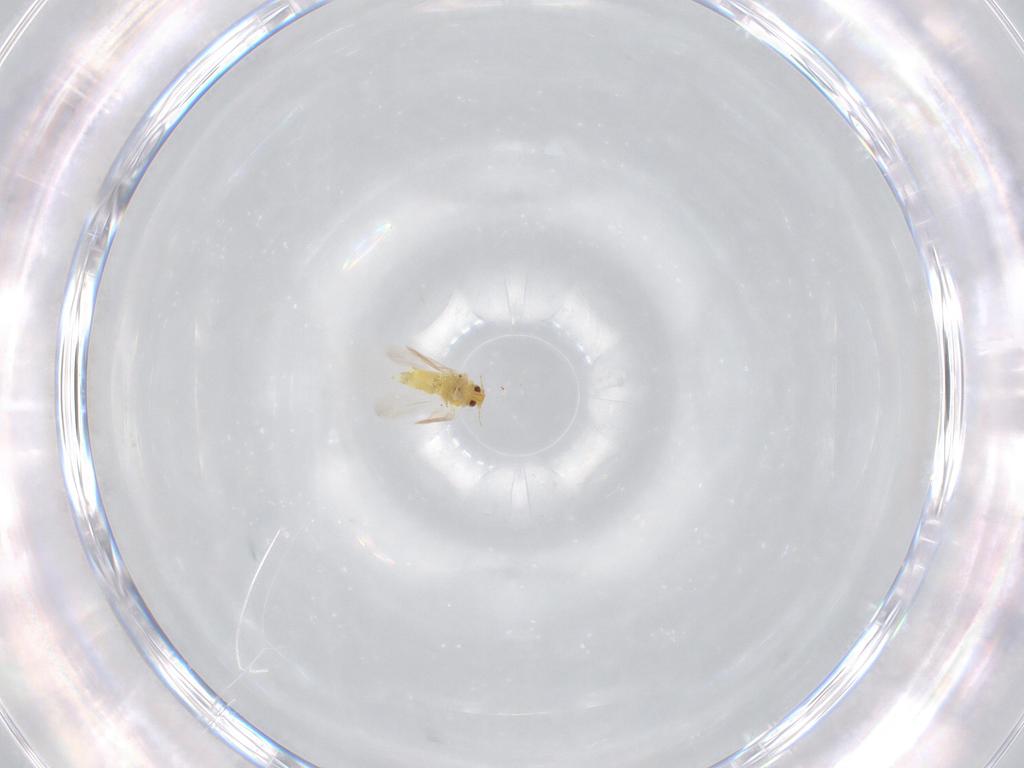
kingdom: Animalia
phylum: Arthropoda
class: Insecta
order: Hemiptera
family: Aleyrodidae
